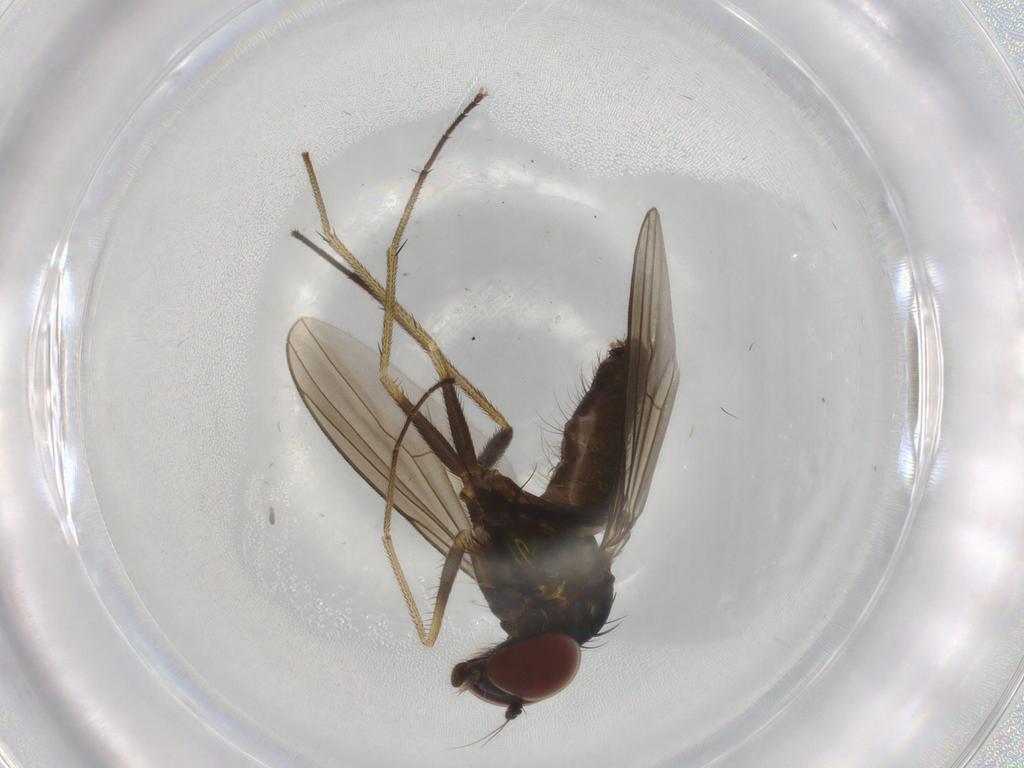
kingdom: Animalia
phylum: Arthropoda
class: Insecta
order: Diptera
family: Dolichopodidae
